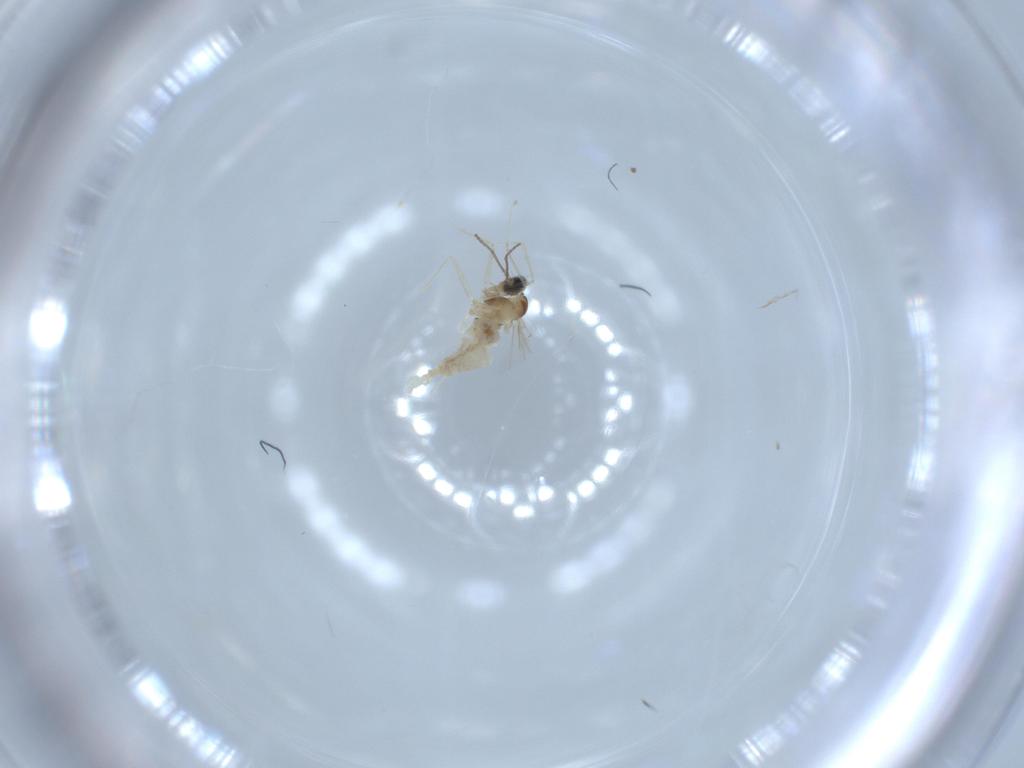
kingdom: Animalia
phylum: Arthropoda
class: Insecta
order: Diptera
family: Cecidomyiidae
